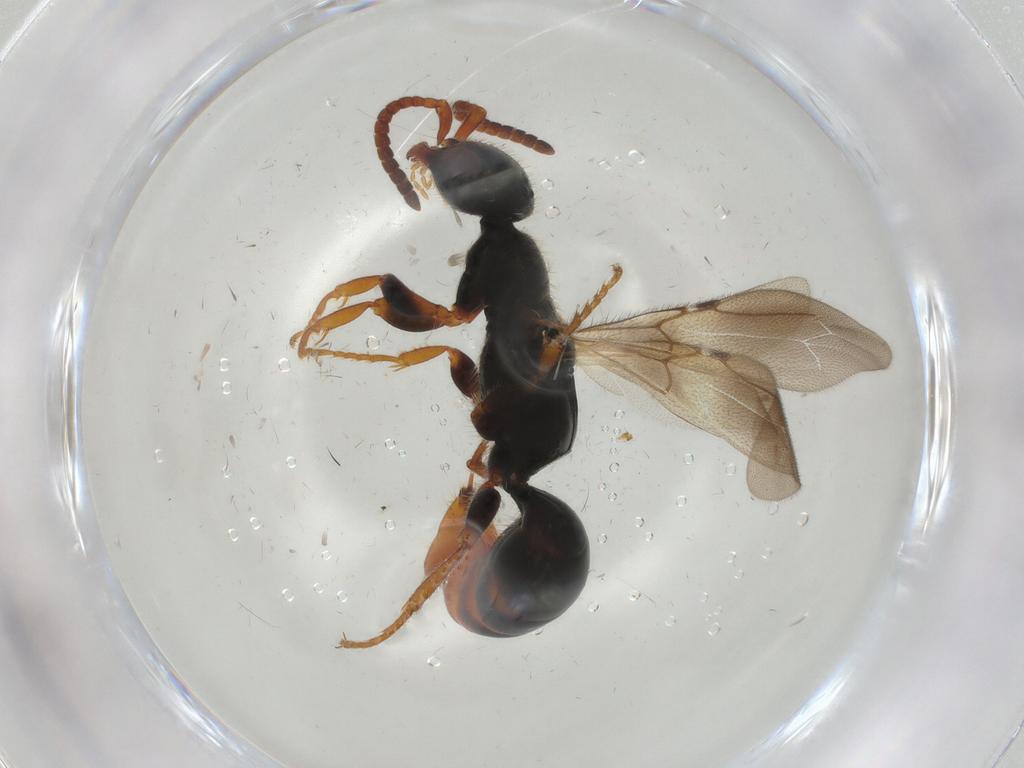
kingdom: Animalia
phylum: Arthropoda
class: Insecta
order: Hymenoptera
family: Bethylidae
